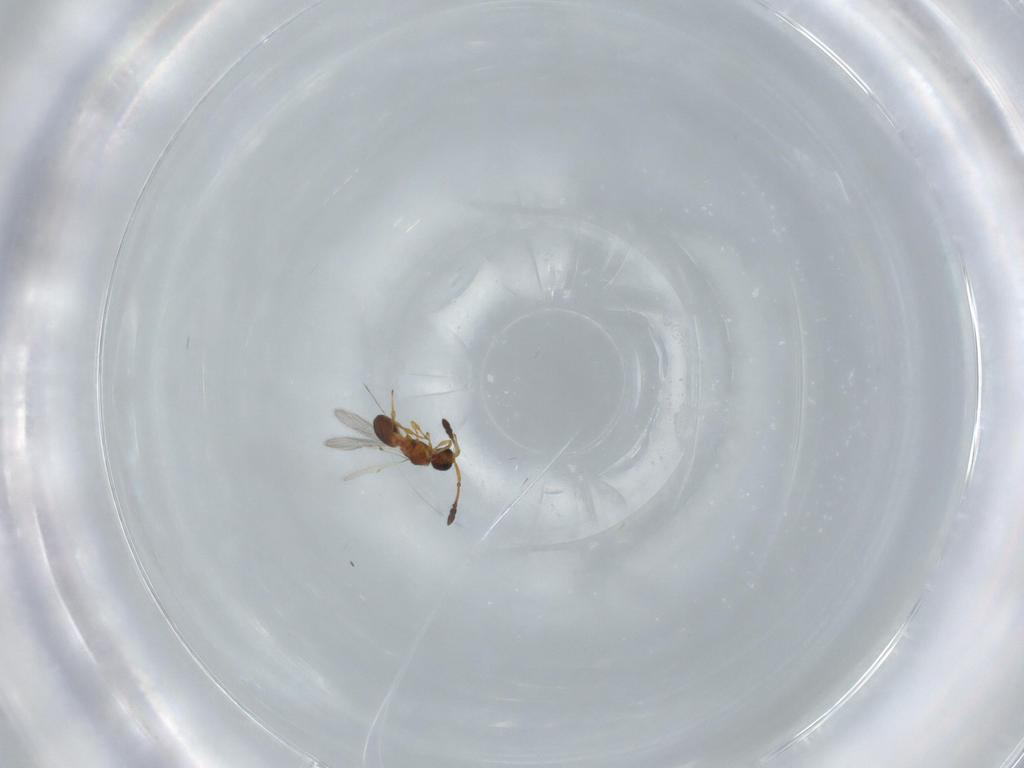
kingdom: Animalia
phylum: Arthropoda
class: Insecta
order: Hymenoptera
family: Diapriidae
